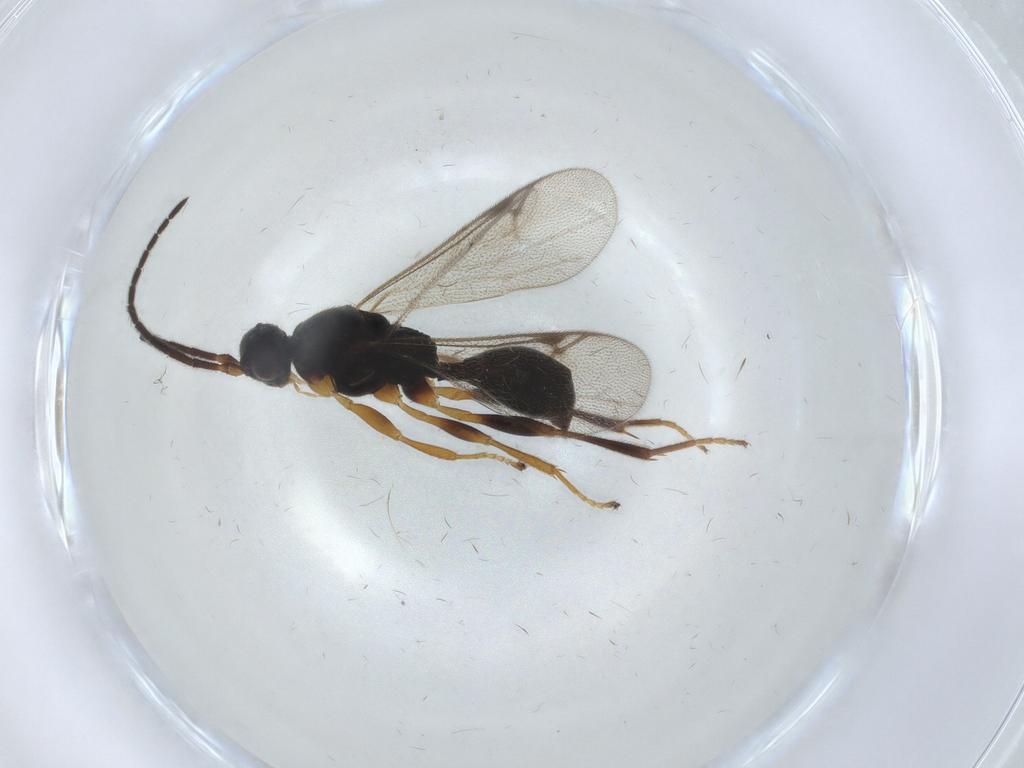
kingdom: Animalia
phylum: Arthropoda
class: Insecta
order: Hymenoptera
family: Proctotrupidae
